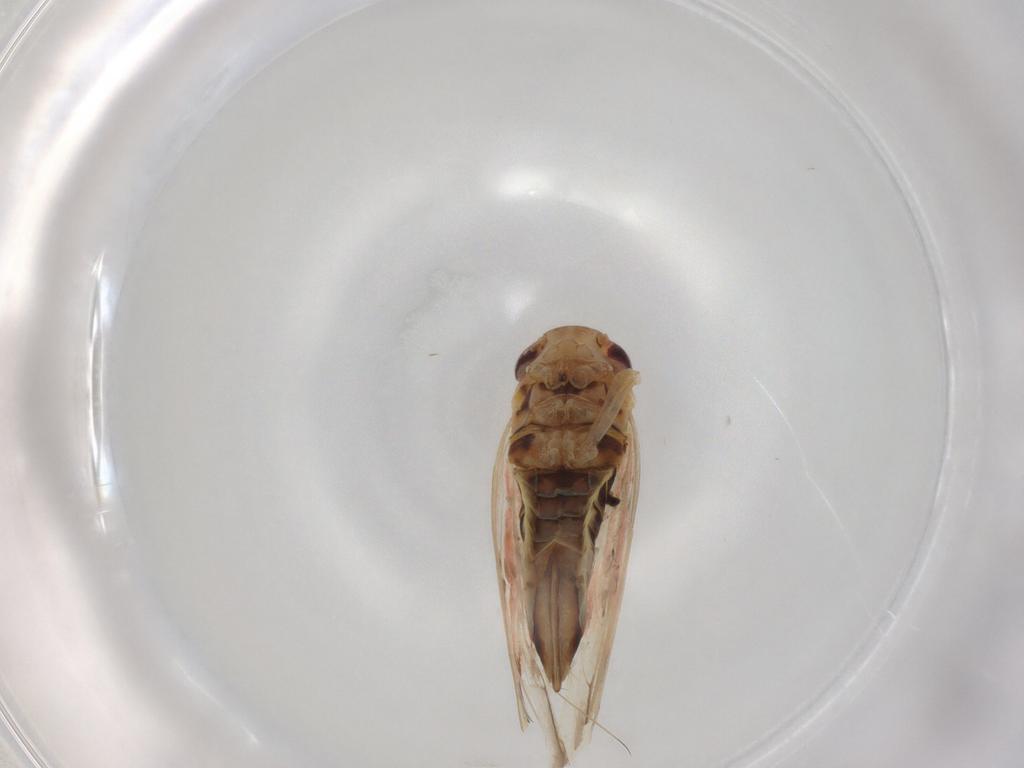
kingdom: Animalia
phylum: Arthropoda
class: Insecta
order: Hemiptera
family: Cicadellidae
